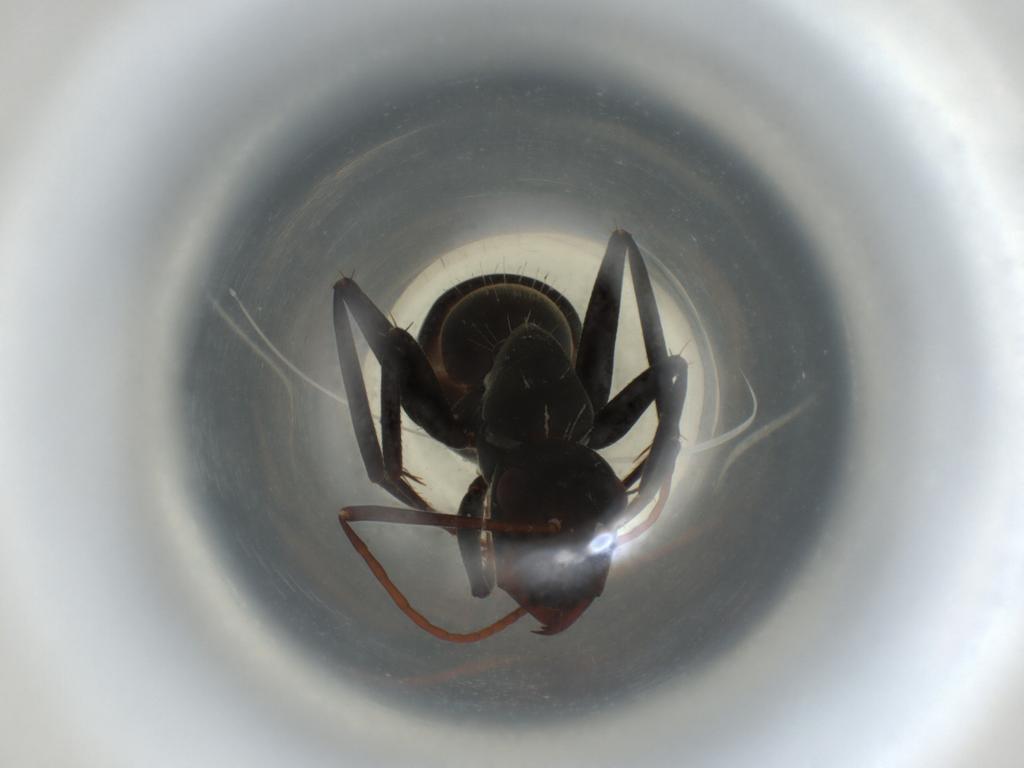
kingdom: Animalia
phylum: Arthropoda
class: Insecta
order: Hymenoptera
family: Formicidae
